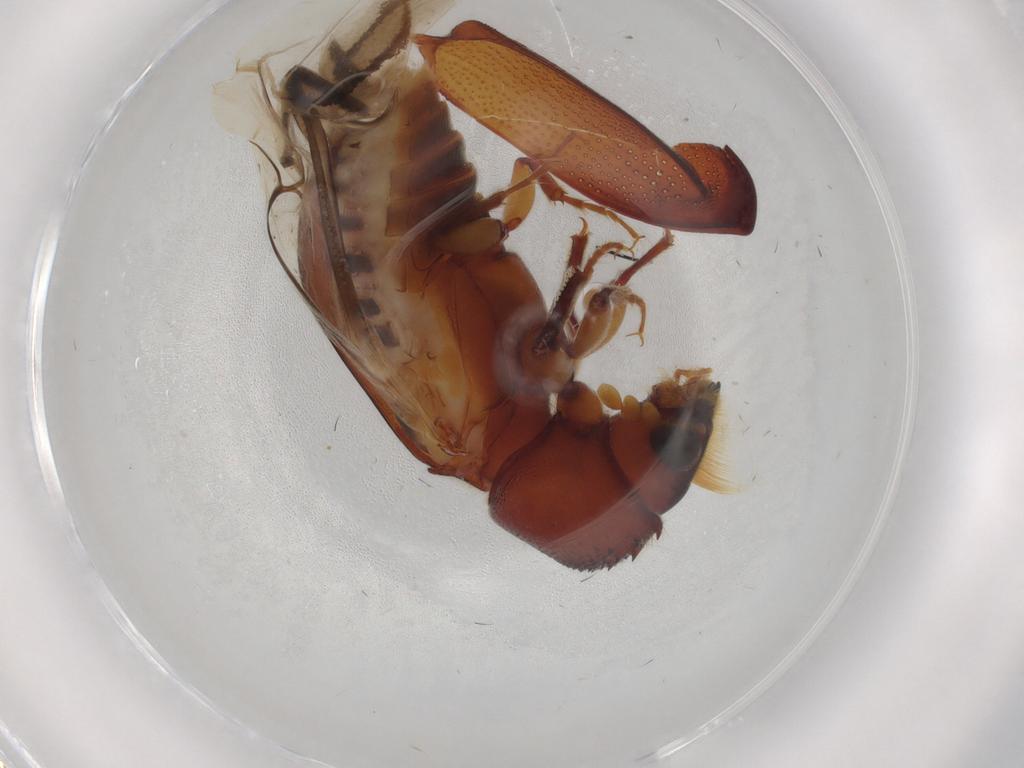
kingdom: Animalia
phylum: Arthropoda
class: Insecta
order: Coleoptera
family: Bostrichidae
